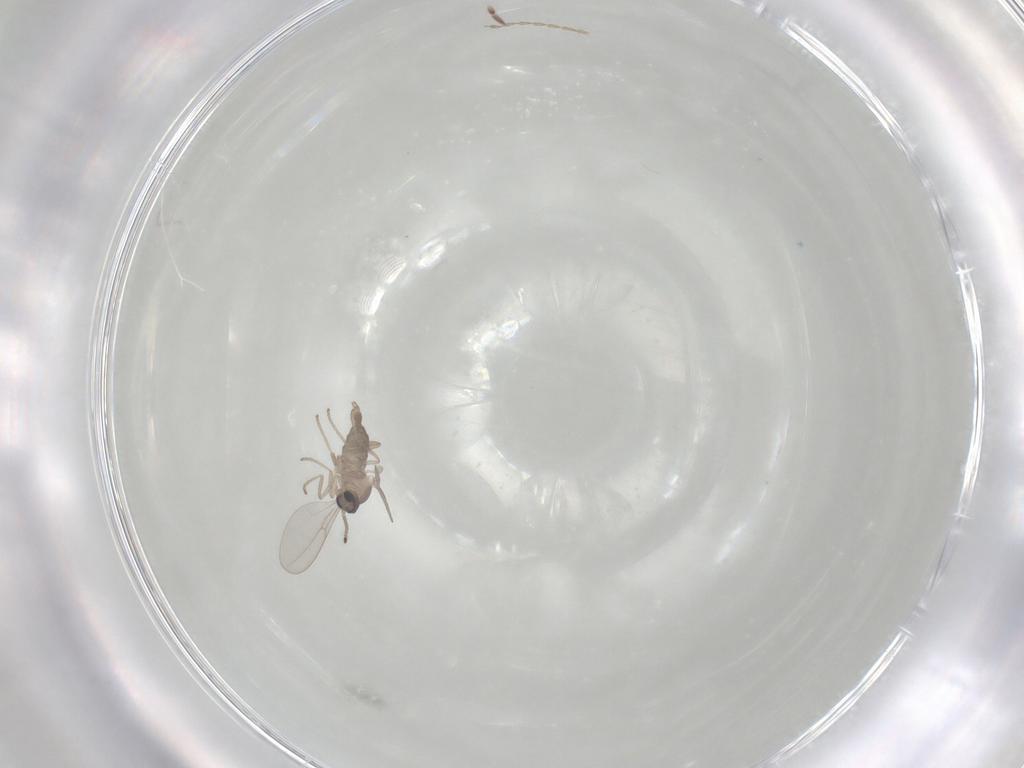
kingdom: Animalia
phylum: Arthropoda
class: Insecta
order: Diptera
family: Cecidomyiidae
